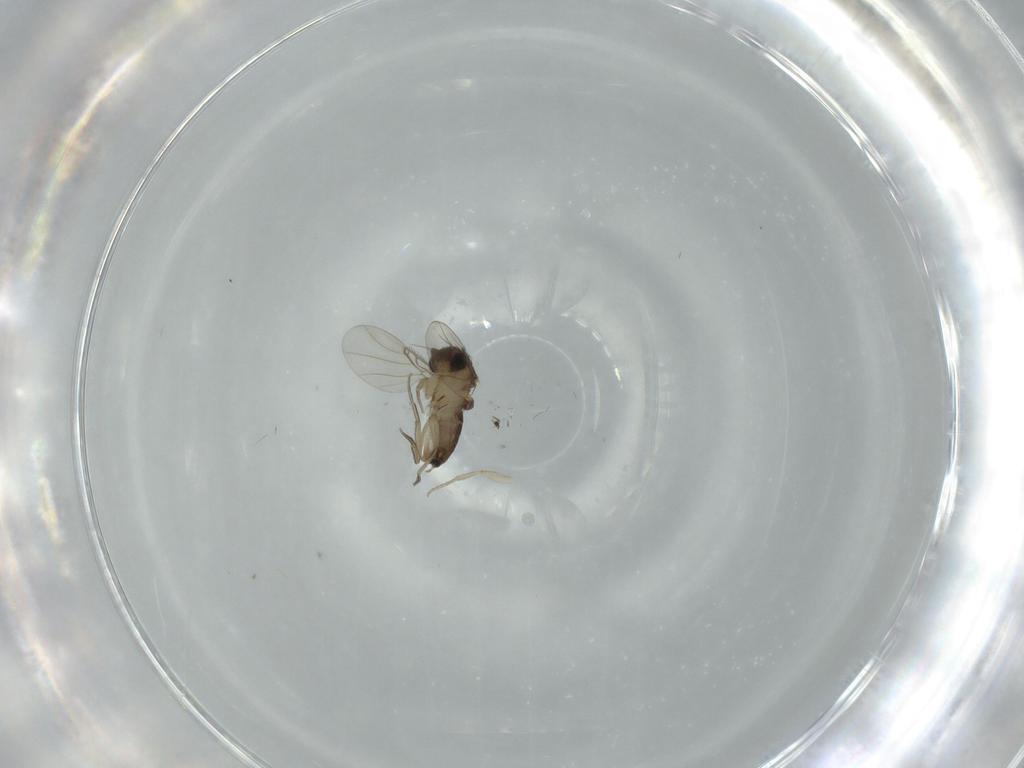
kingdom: Animalia
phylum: Arthropoda
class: Insecta
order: Diptera
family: Phoridae
